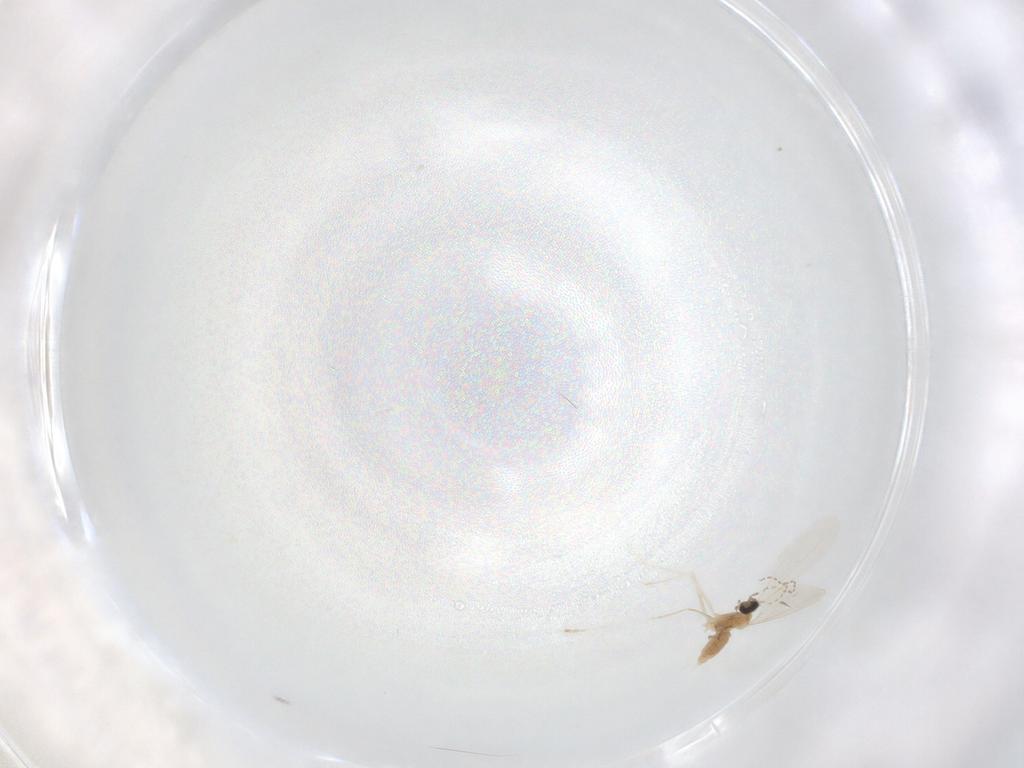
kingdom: Animalia
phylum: Arthropoda
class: Insecta
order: Diptera
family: Cecidomyiidae
